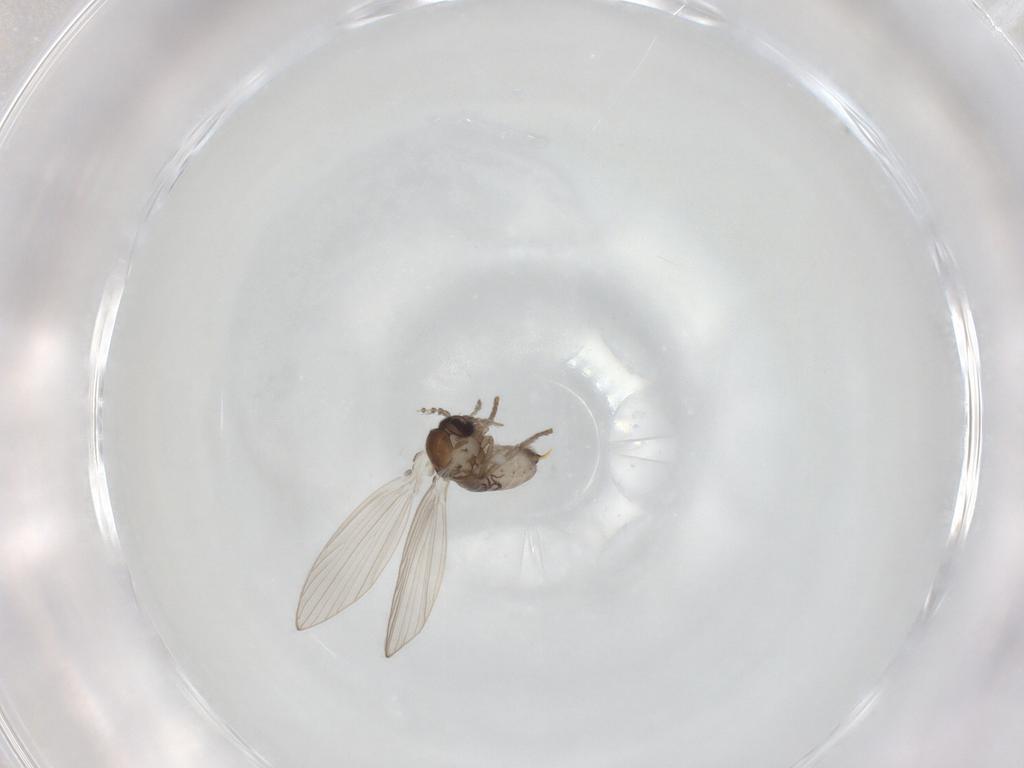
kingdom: Animalia
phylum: Arthropoda
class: Insecta
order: Diptera
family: Psychodidae
